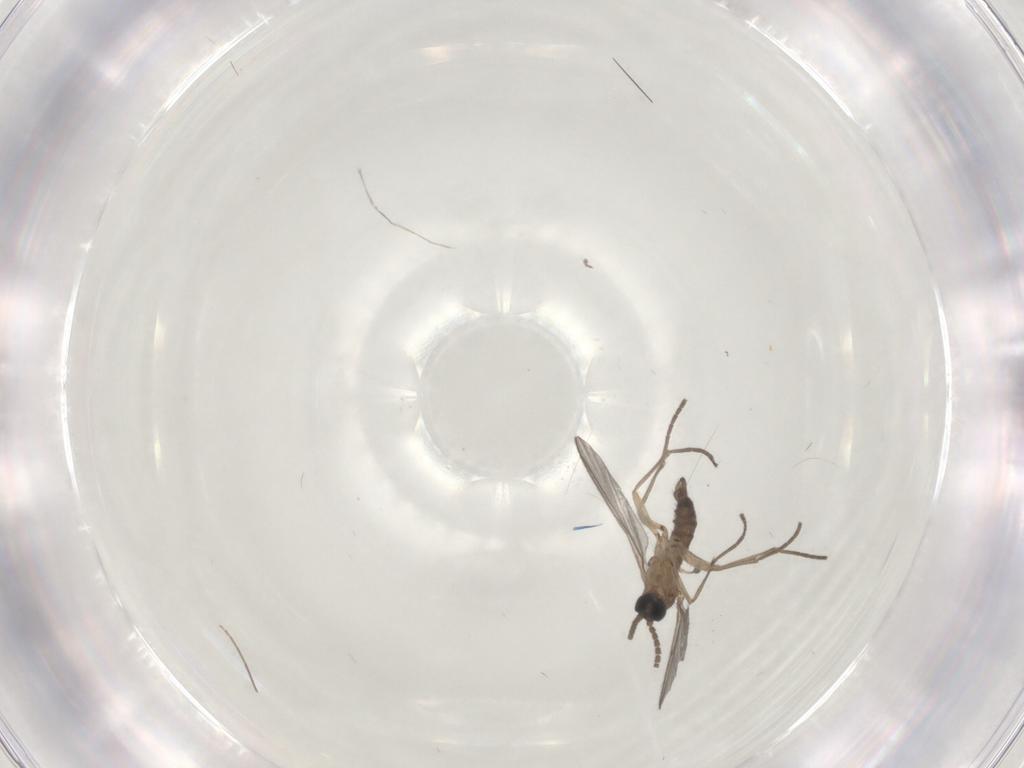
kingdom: Animalia
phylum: Arthropoda
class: Insecta
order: Diptera
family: Sciaridae
